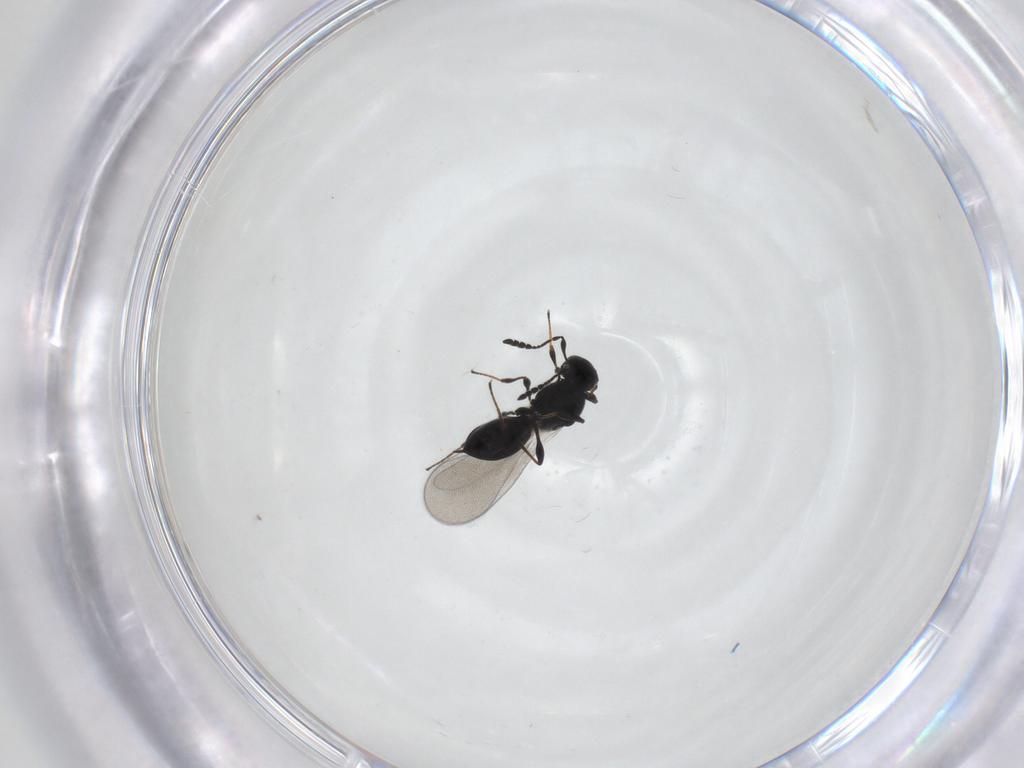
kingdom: Animalia
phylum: Arthropoda
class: Insecta
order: Hymenoptera
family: Platygastridae
